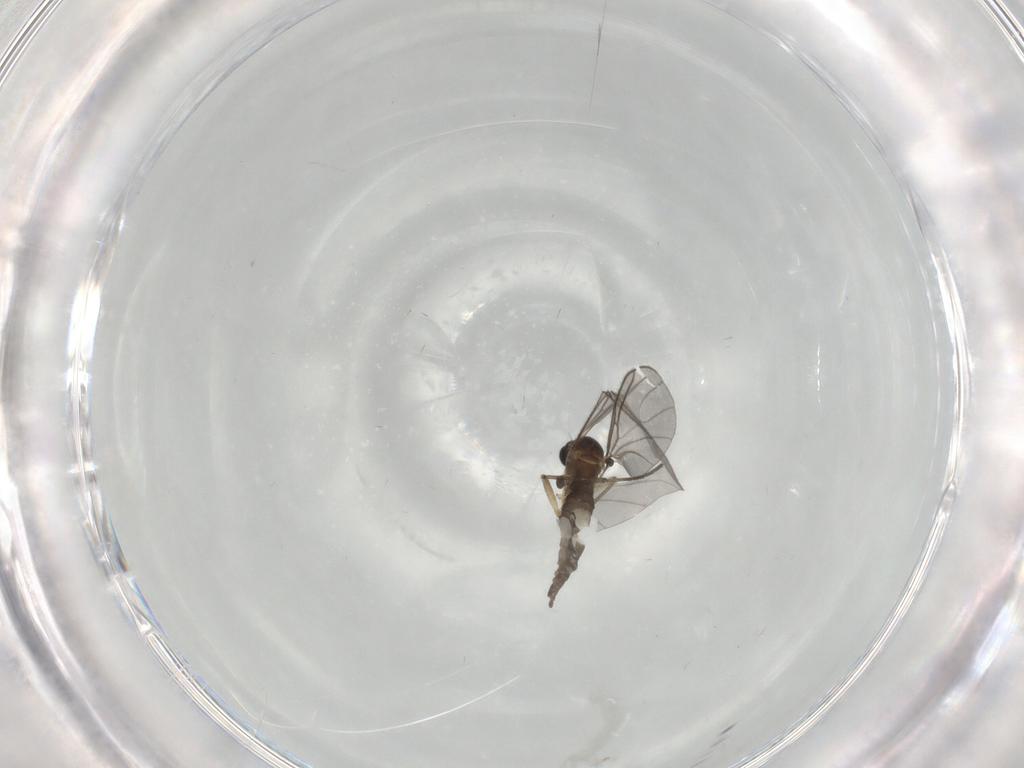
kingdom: Animalia
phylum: Arthropoda
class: Insecta
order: Diptera
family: Sciaridae
